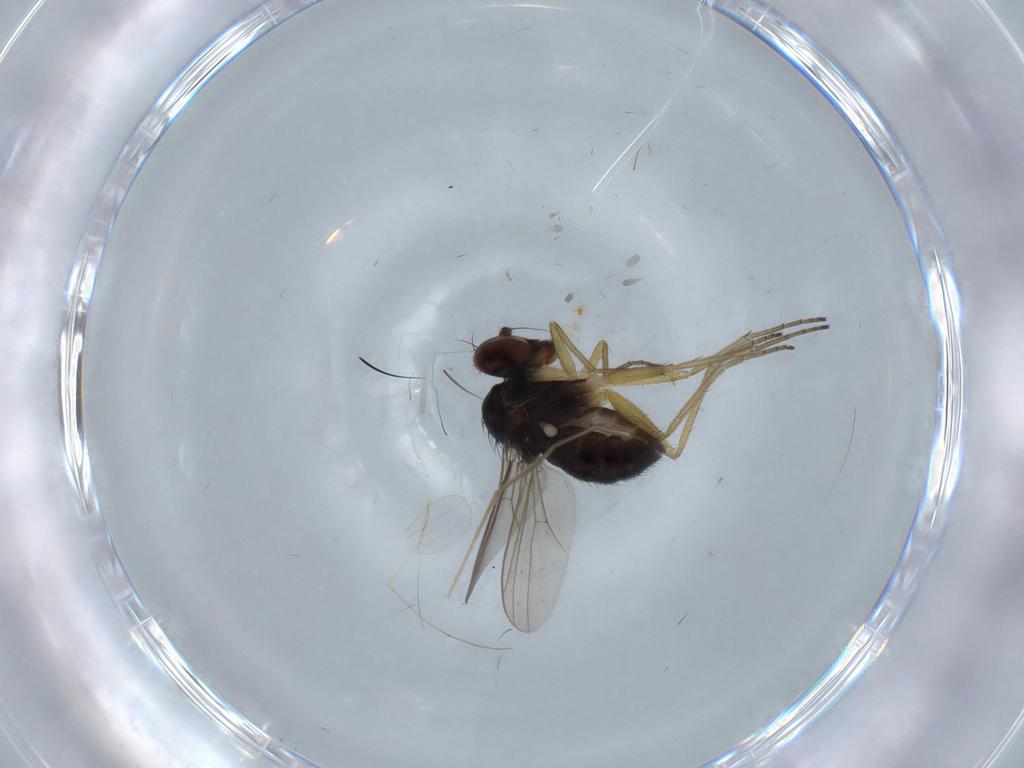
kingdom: Animalia
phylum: Arthropoda
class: Insecta
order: Diptera
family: Dolichopodidae
